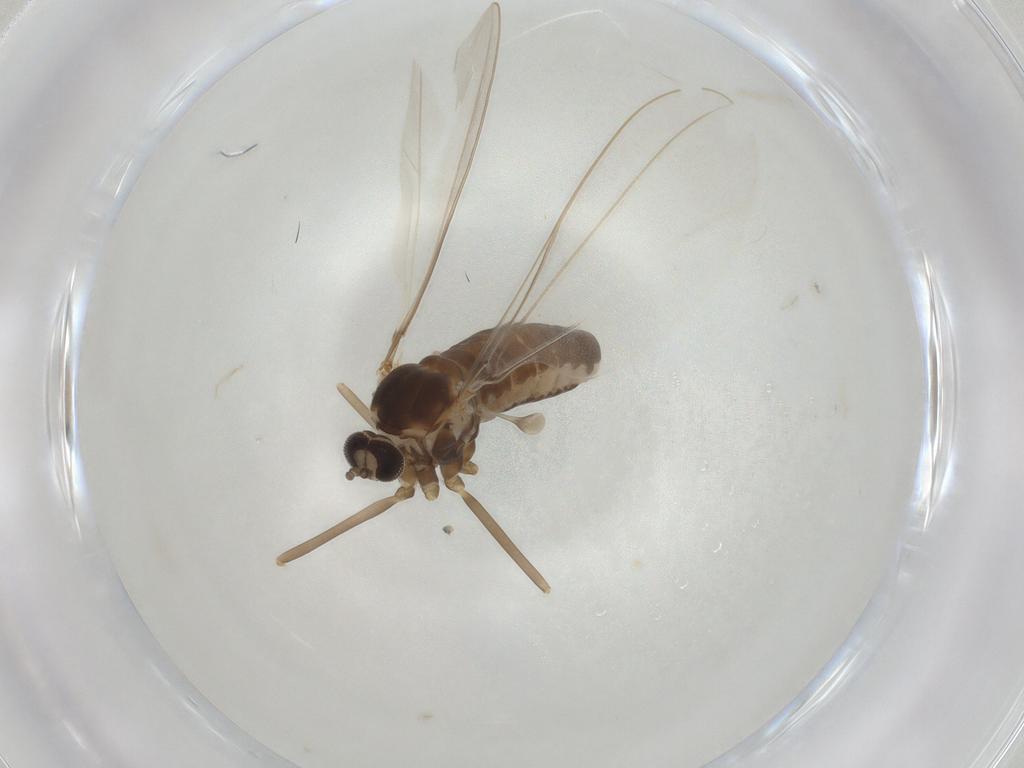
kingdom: Animalia
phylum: Arthropoda
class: Insecta
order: Diptera
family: Cecidomyiidae
